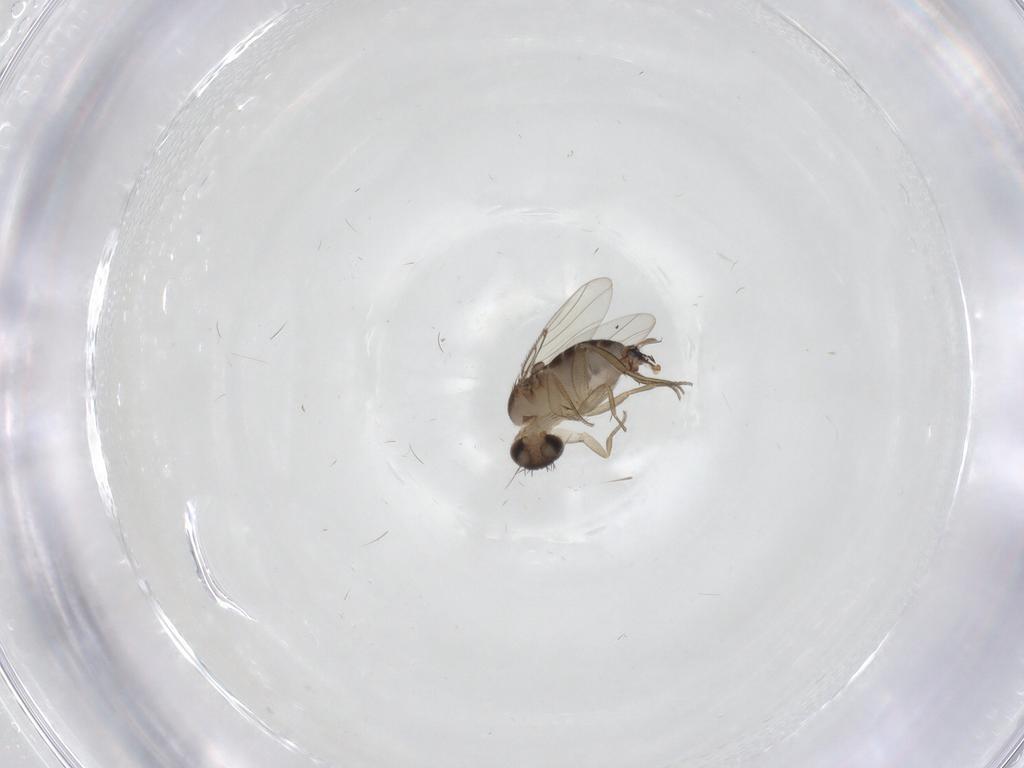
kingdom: Animalia
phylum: Arthropoda
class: Insecta
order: Diptera
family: Phoridae
